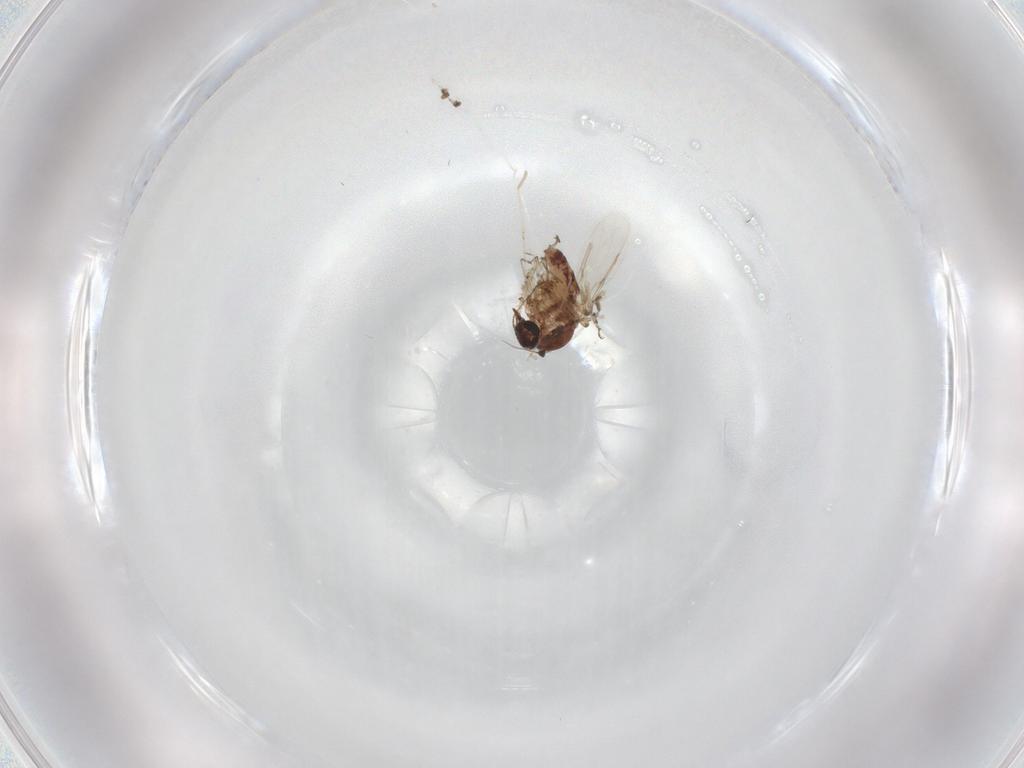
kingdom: Animalia
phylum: Arthropoda
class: Insecta
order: Diptera
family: Ceratopogonidae
